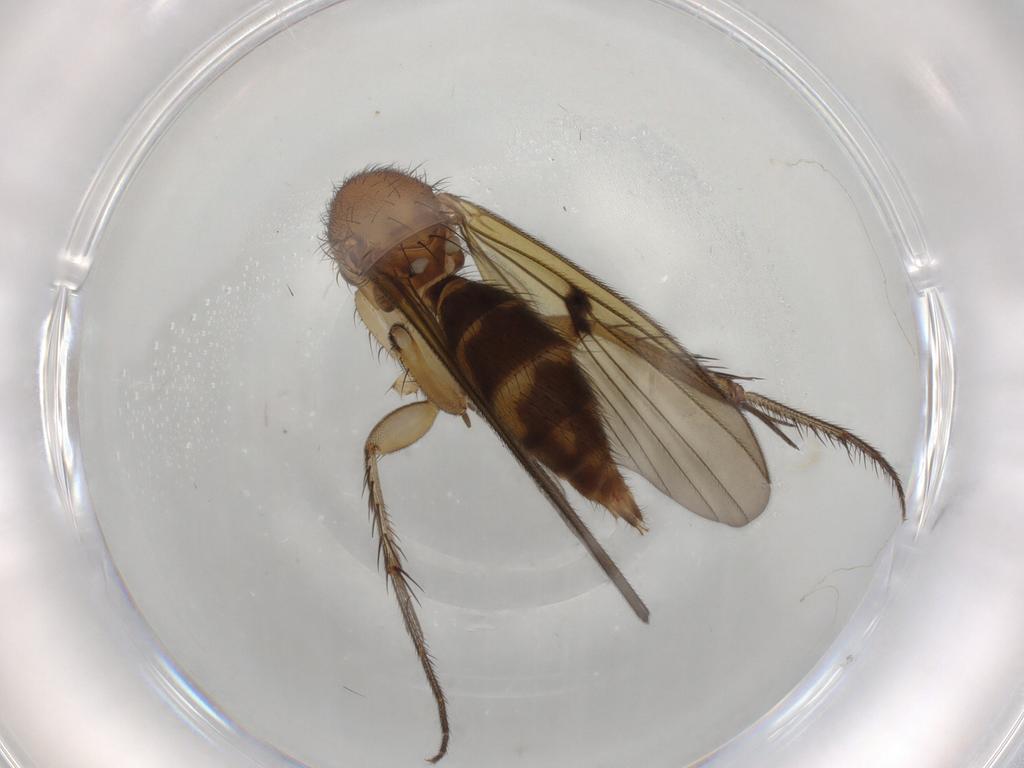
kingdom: Animalia
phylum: Arthropoda
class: Insecta
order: Diptera
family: Mycetophilidae
